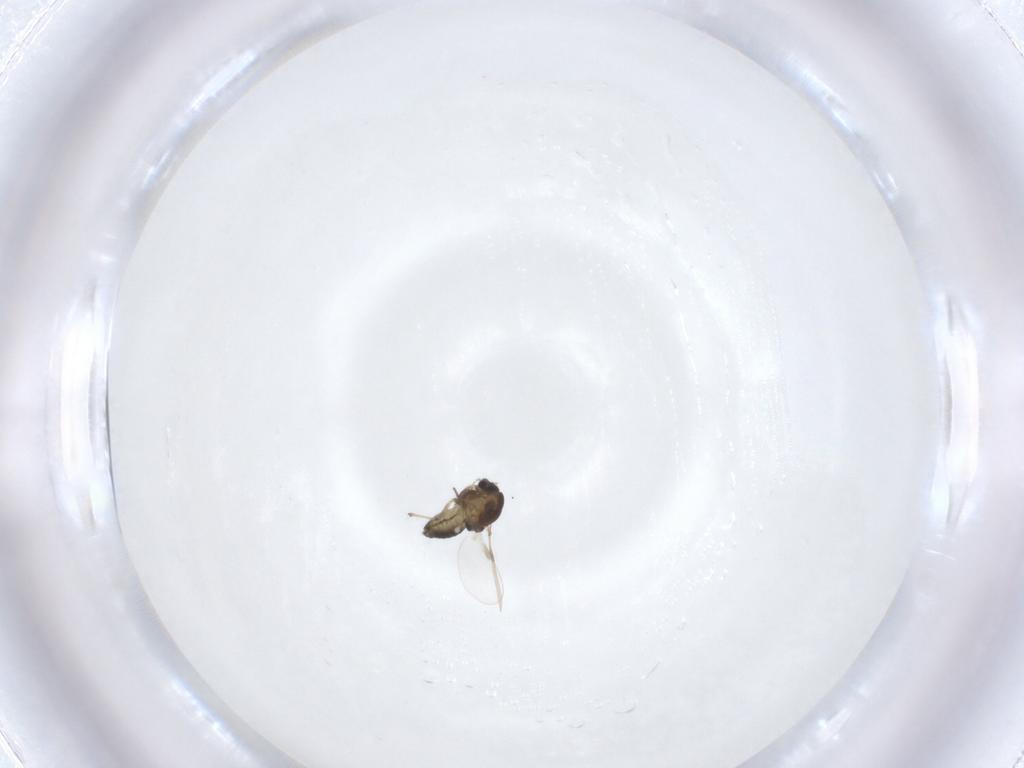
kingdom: Animalia
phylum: Arthropoda
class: Insecta
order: Diptera
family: Chironomidae
